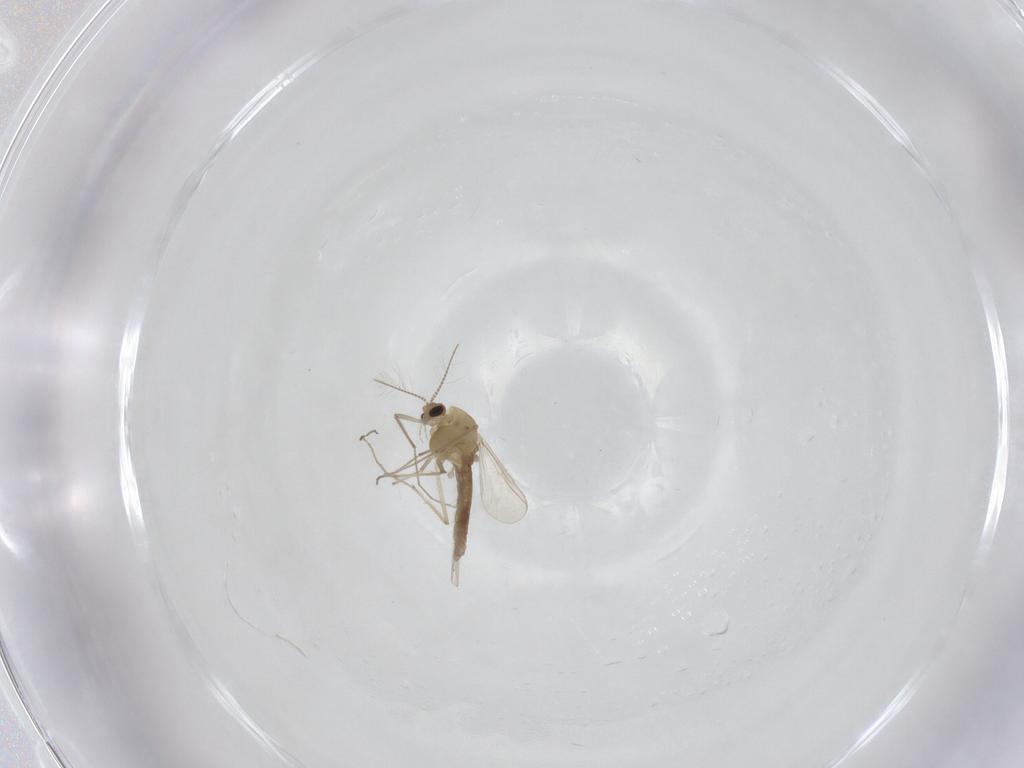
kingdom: Animalia
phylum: Arthropoda
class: Insecta
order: Diptera
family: Chironomidae
